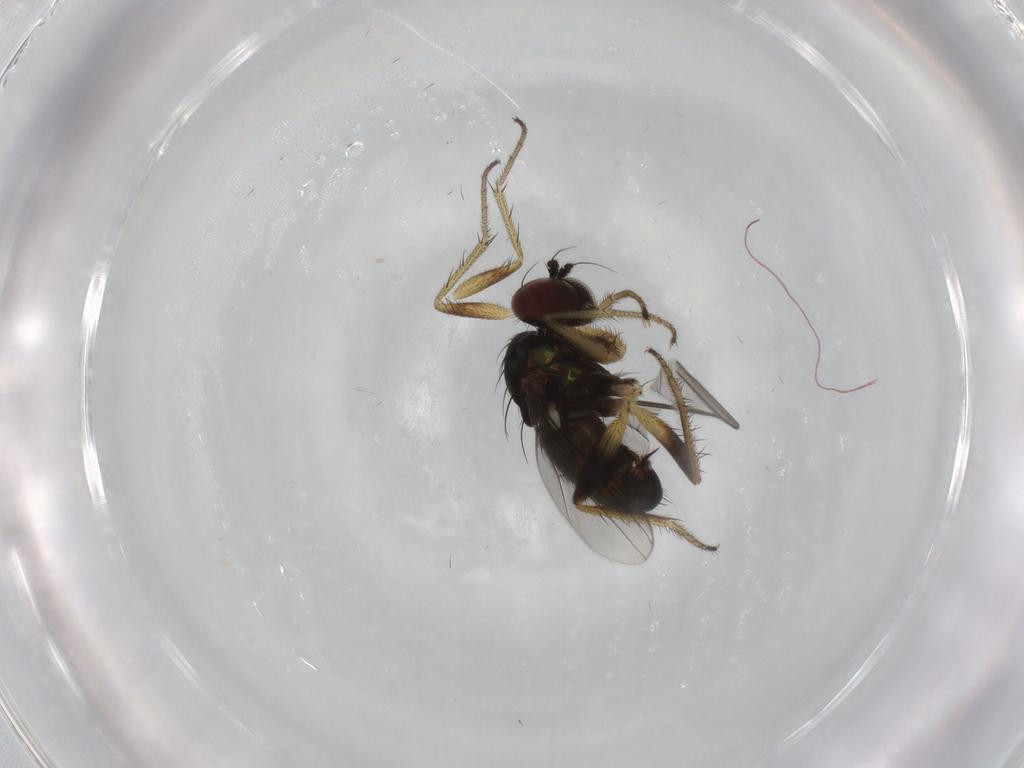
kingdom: Animalia
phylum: Arthropoda
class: Insecta
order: Diptera
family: Dolichopodidae
